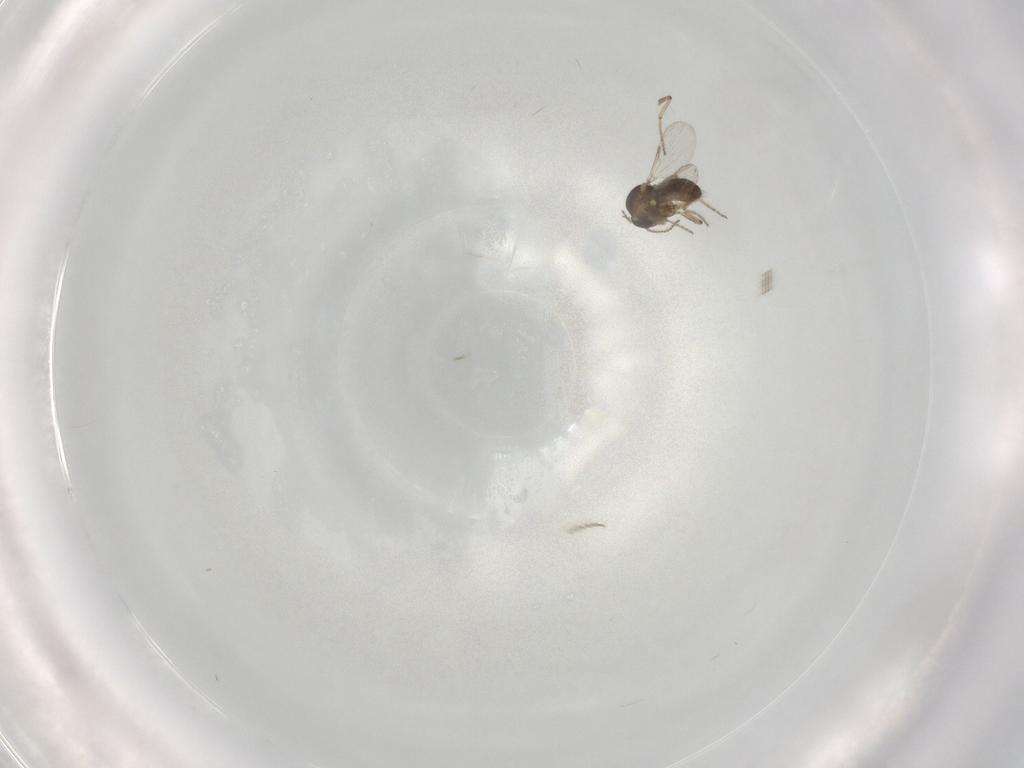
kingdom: Animalia
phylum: Arthropoda
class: Insecta
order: Diptera
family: Ceratopogonidae
